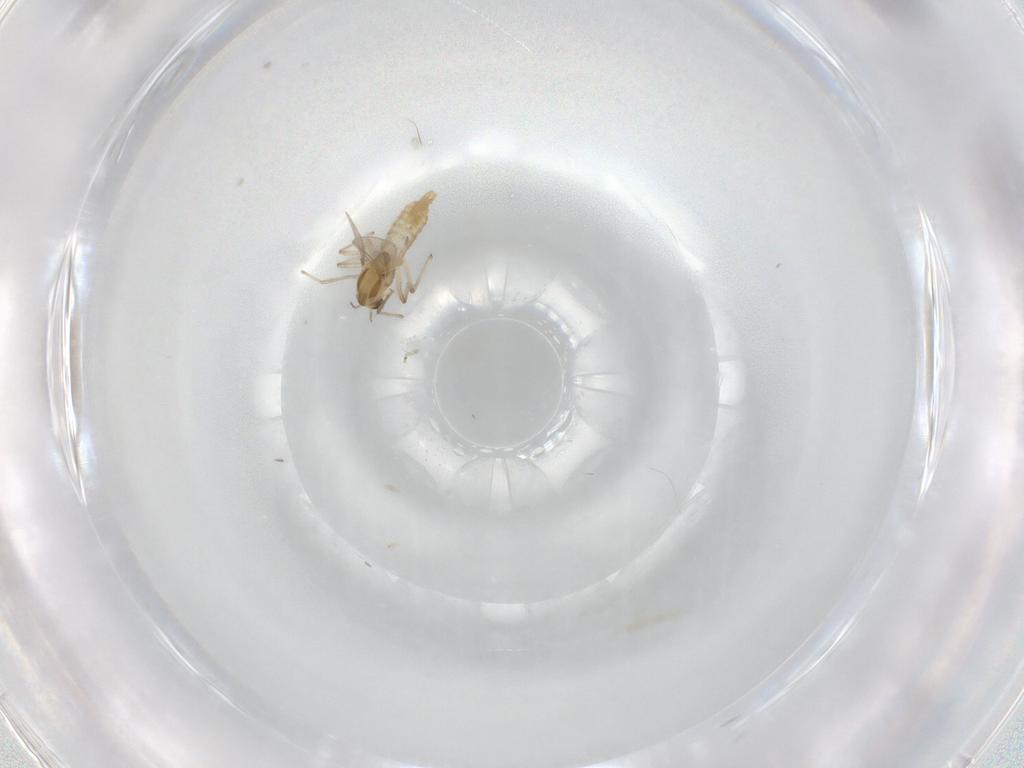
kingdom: Animalia
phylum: Arthropoda
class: Insecta
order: Diptera
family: Chironomidae
